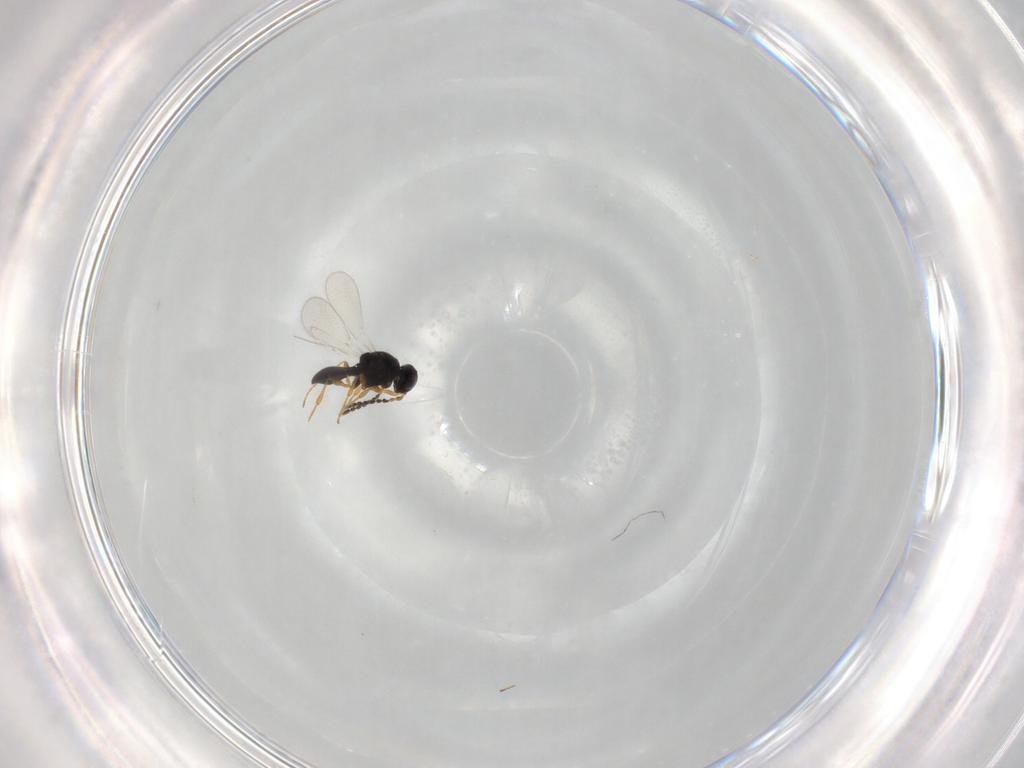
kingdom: Animalia
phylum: Arthropoda
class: Insecta
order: Hymenoptera
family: Platygastridae
